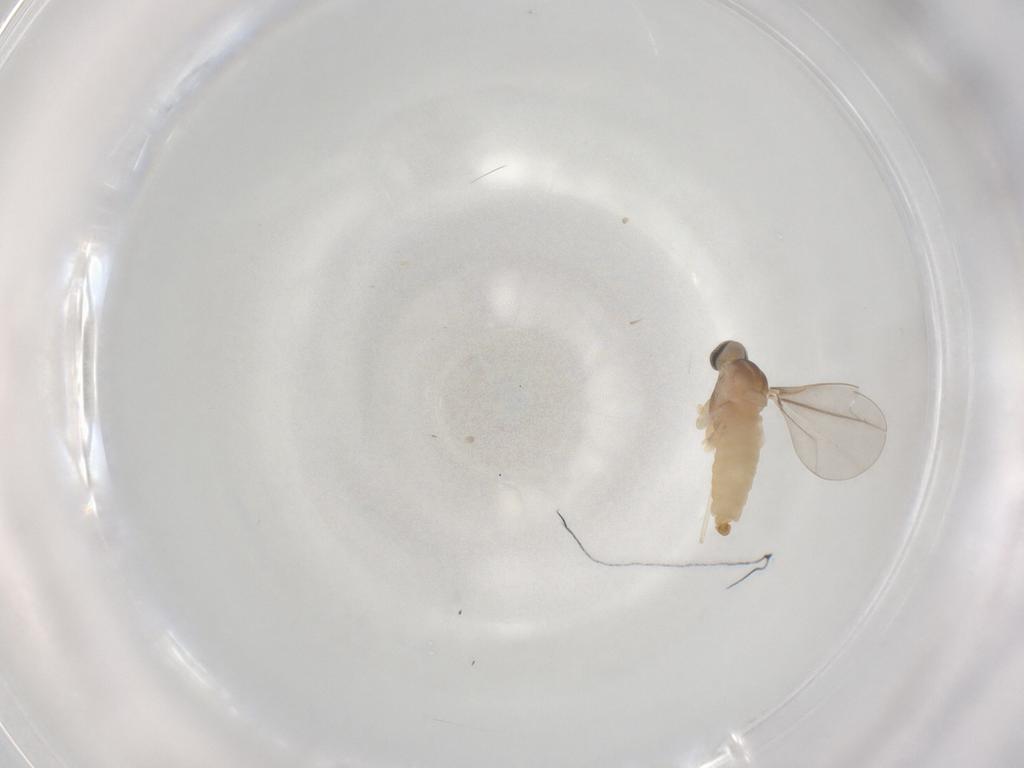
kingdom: Animalia
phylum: Arthropoda
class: Insecta
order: Diptera
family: Cecidomyiidae
